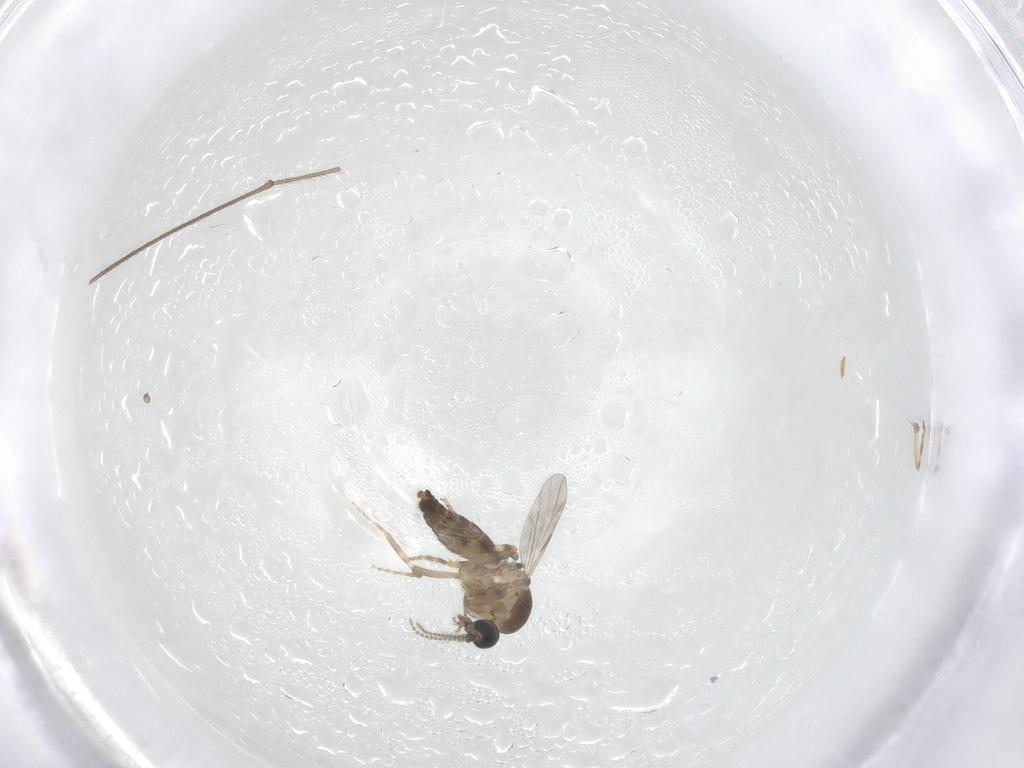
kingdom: Animalia
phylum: Arthropoda
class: Insecta
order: Diptera
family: Ceratopogonidae
